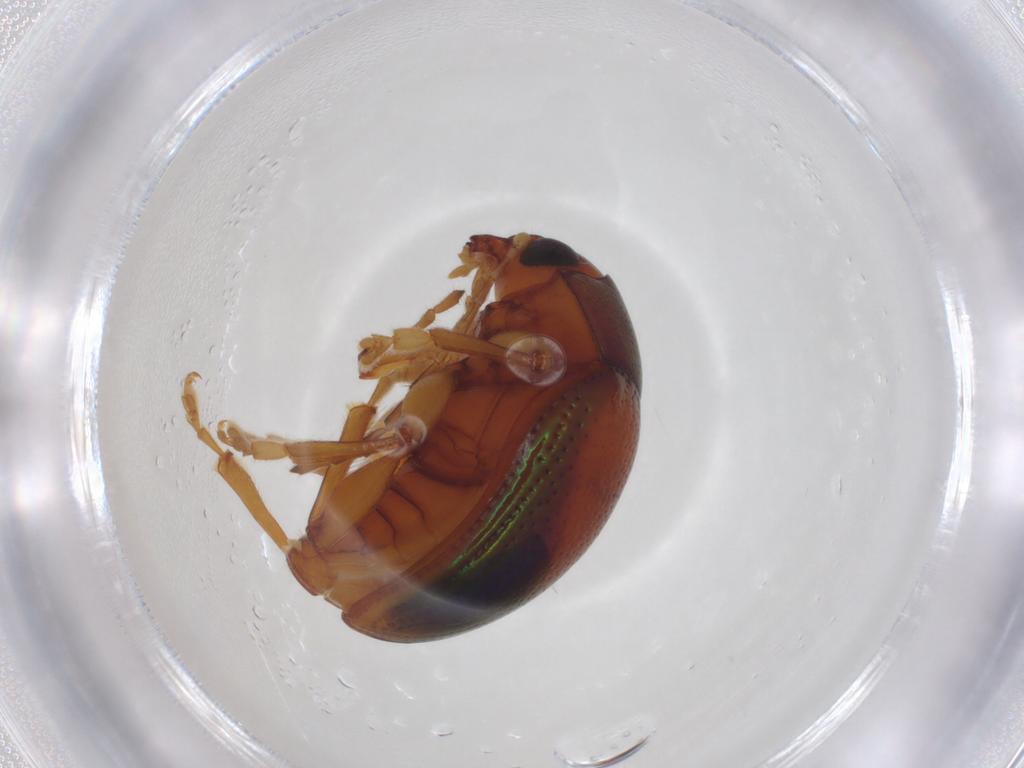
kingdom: Animalia
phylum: Arthropoda
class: Insecta
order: Coleoptera
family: Chrysomelidae
